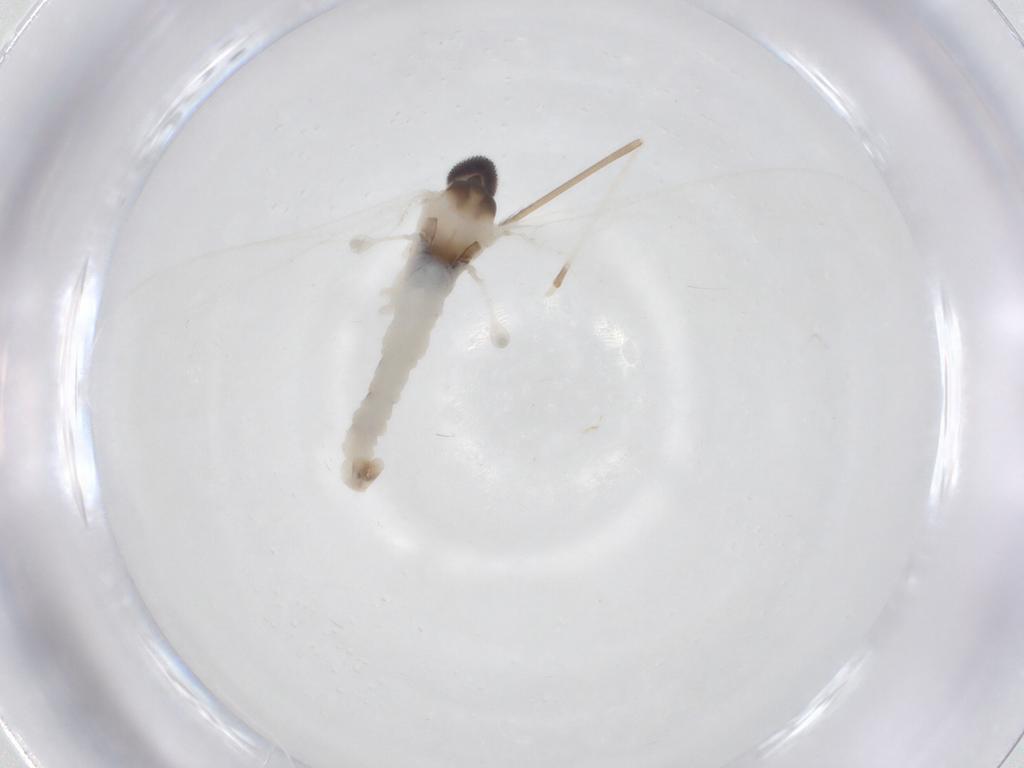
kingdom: Animalia
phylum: Arthropoda
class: Insecta
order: Diptera
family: Cecidomyiidae
